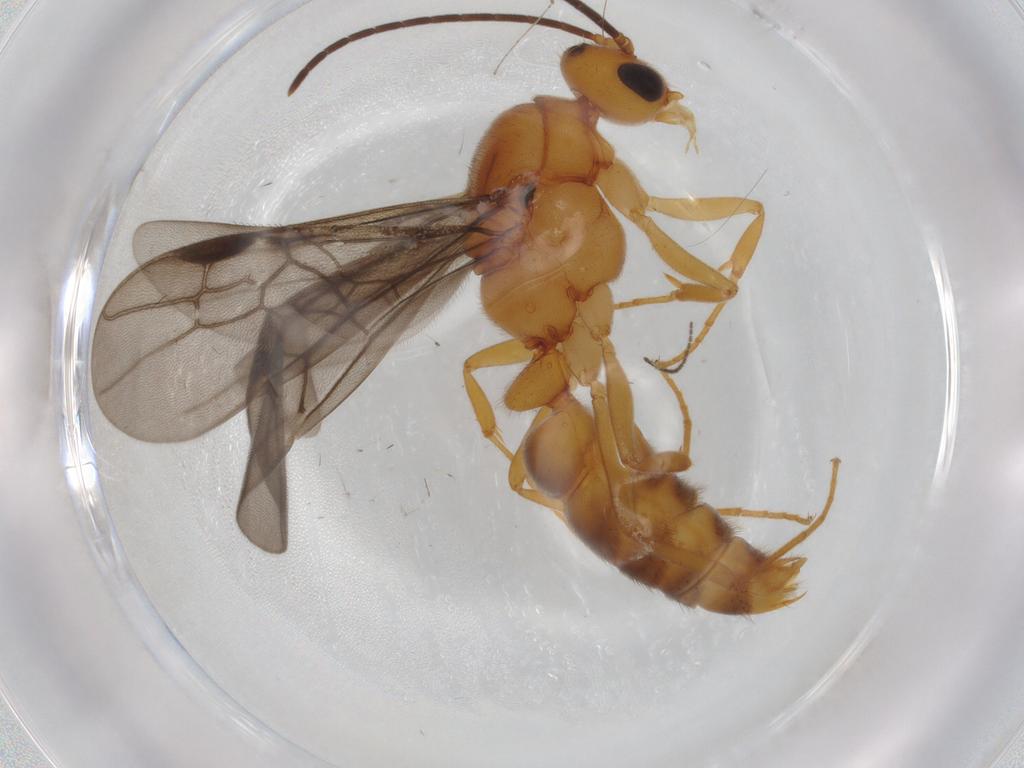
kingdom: Animalia
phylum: Arthropoda
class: Insecta
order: Hymenoptera
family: Formicidae
